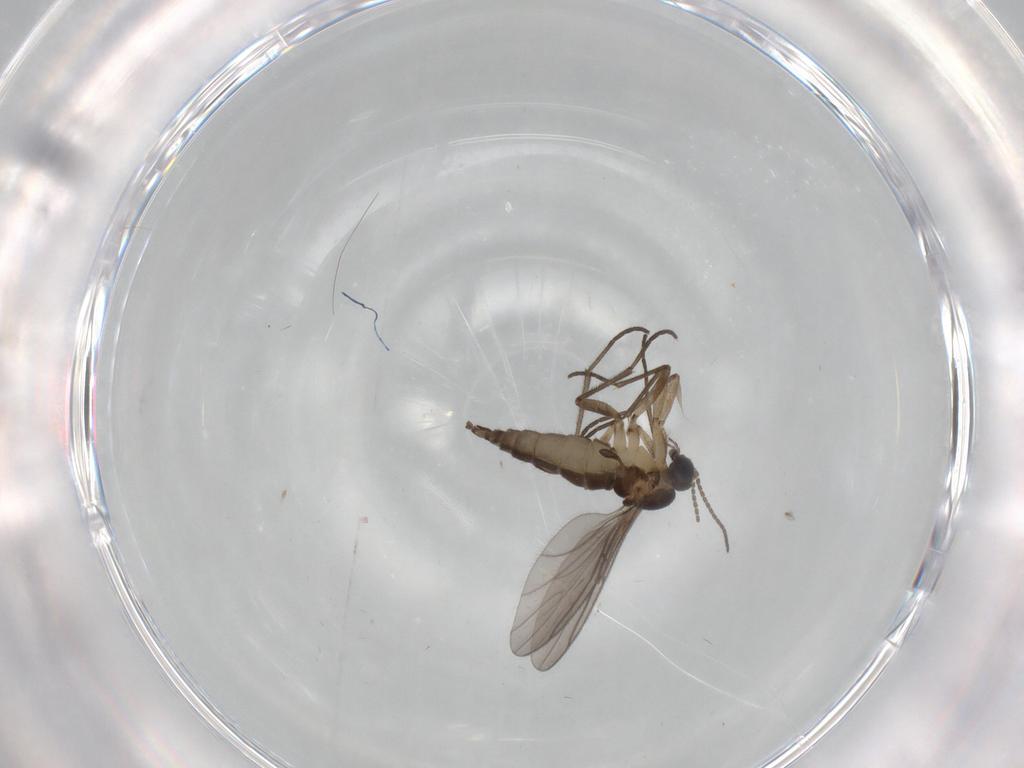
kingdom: Animalia
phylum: Arthropoda
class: Insecta
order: Diptera
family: Sciaridae
